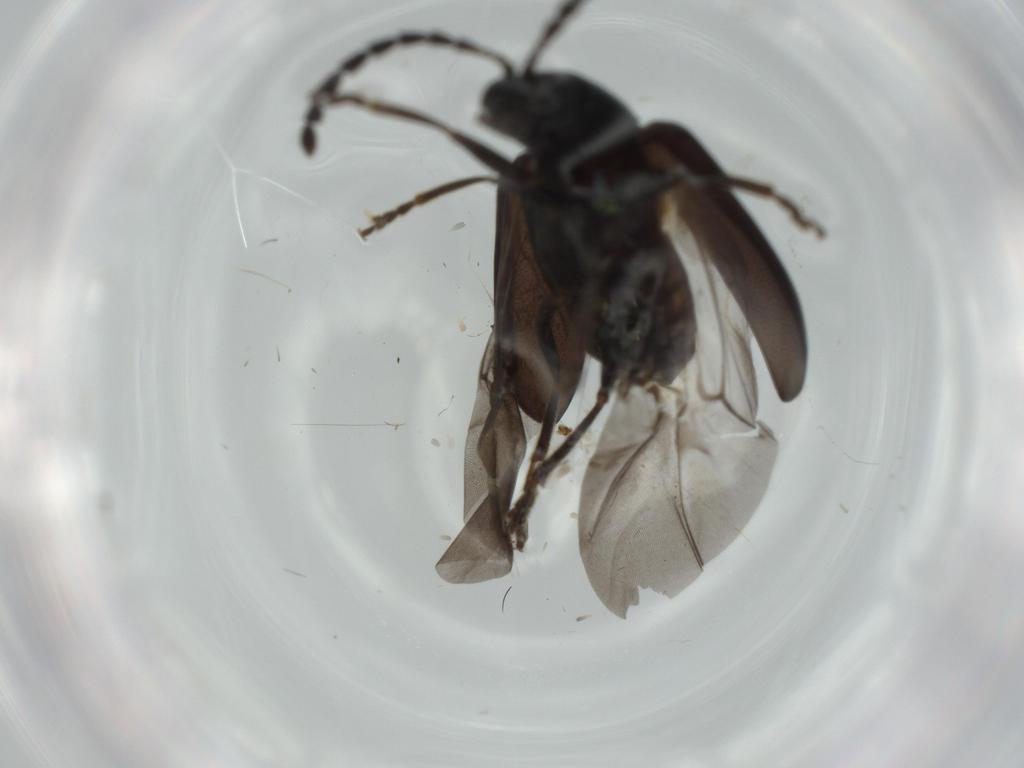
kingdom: Animalia
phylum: Arthropoda
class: Insecta
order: Coleoptera
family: Chrysomelidae
